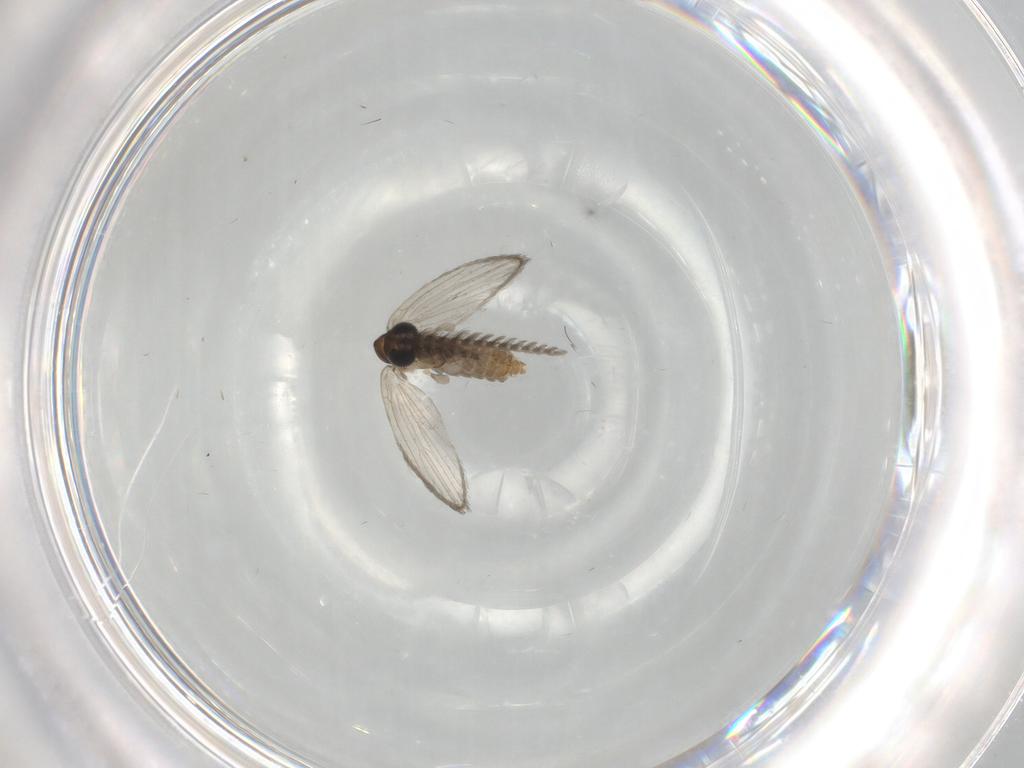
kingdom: Animalia
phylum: Arthropoda
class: Insecta
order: Diptera
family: Psychodidae
